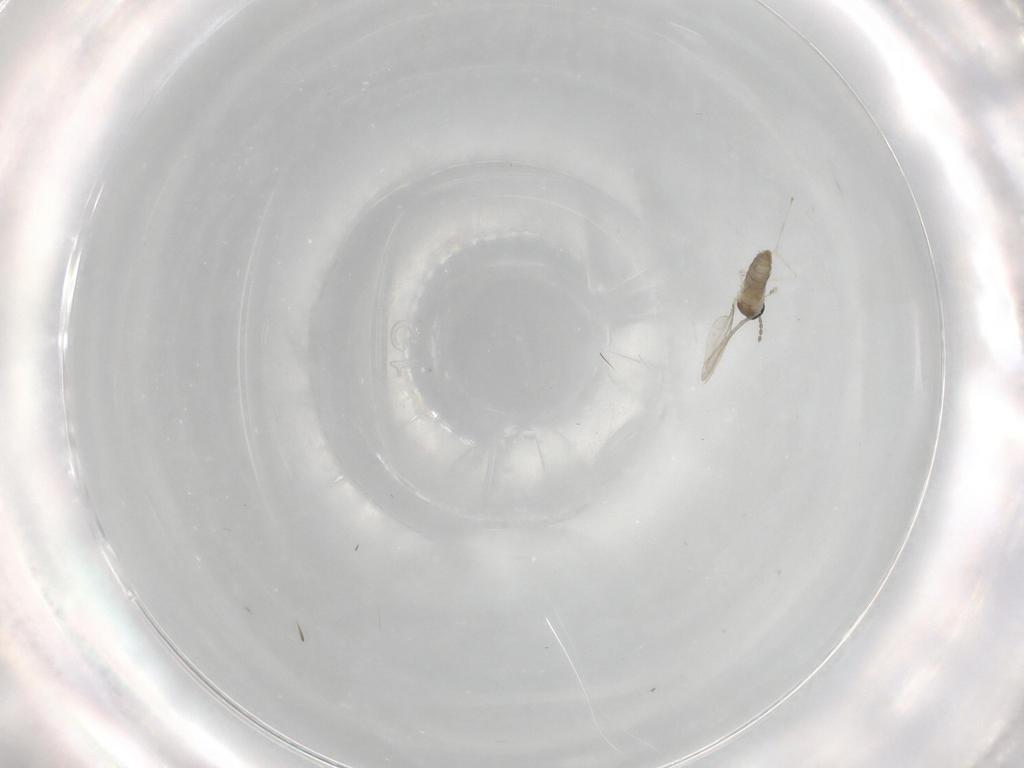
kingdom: Animalia
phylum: Arthropoda
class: Insecta
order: Diptera
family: Cecidomyiidae
